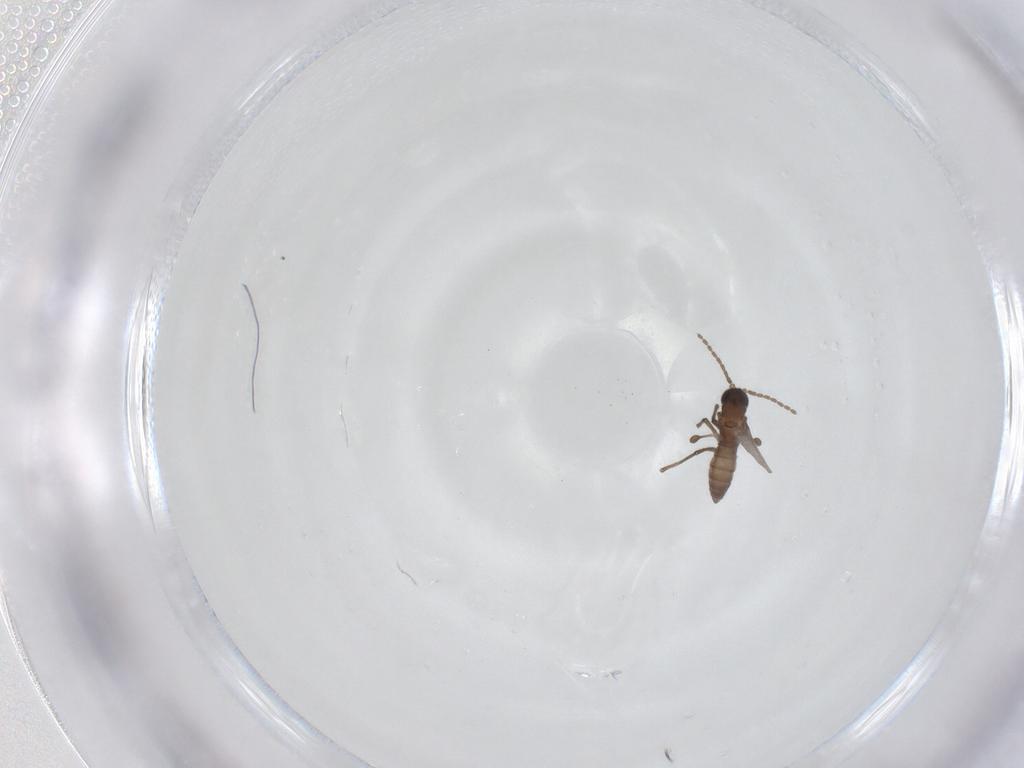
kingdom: Animalia
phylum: Arthropoda
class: Insecta
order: Diptera
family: Sciaridae
